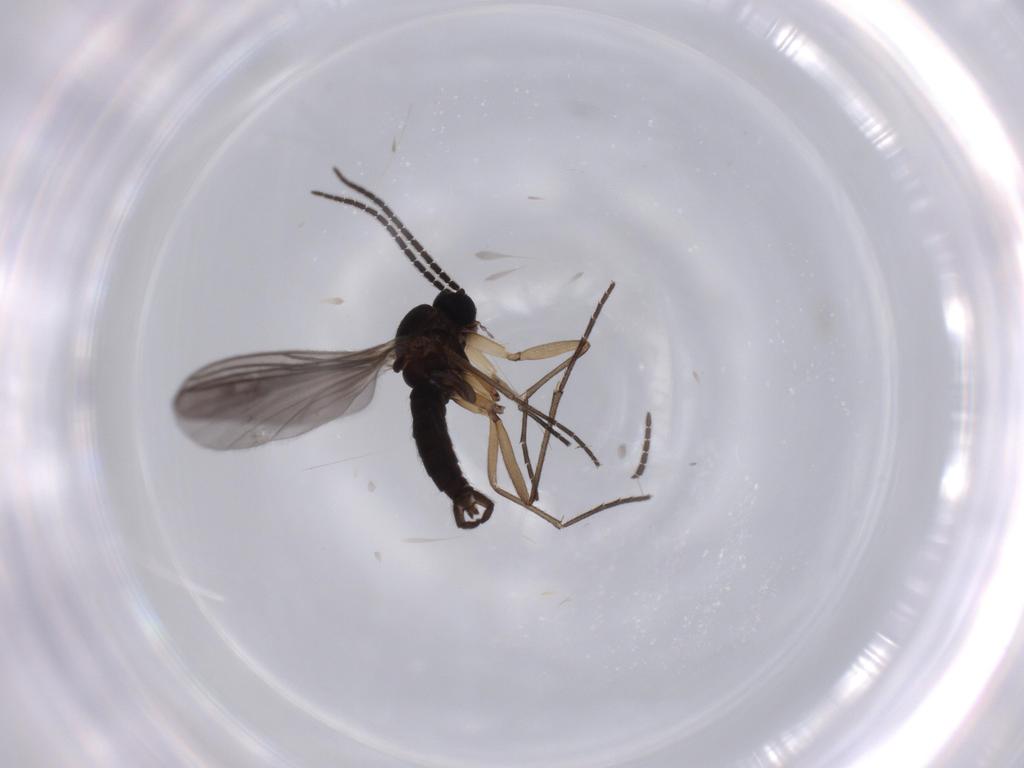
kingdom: Animalia
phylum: Arthropoda
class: Insecta
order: Diptera
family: Sciaridae
